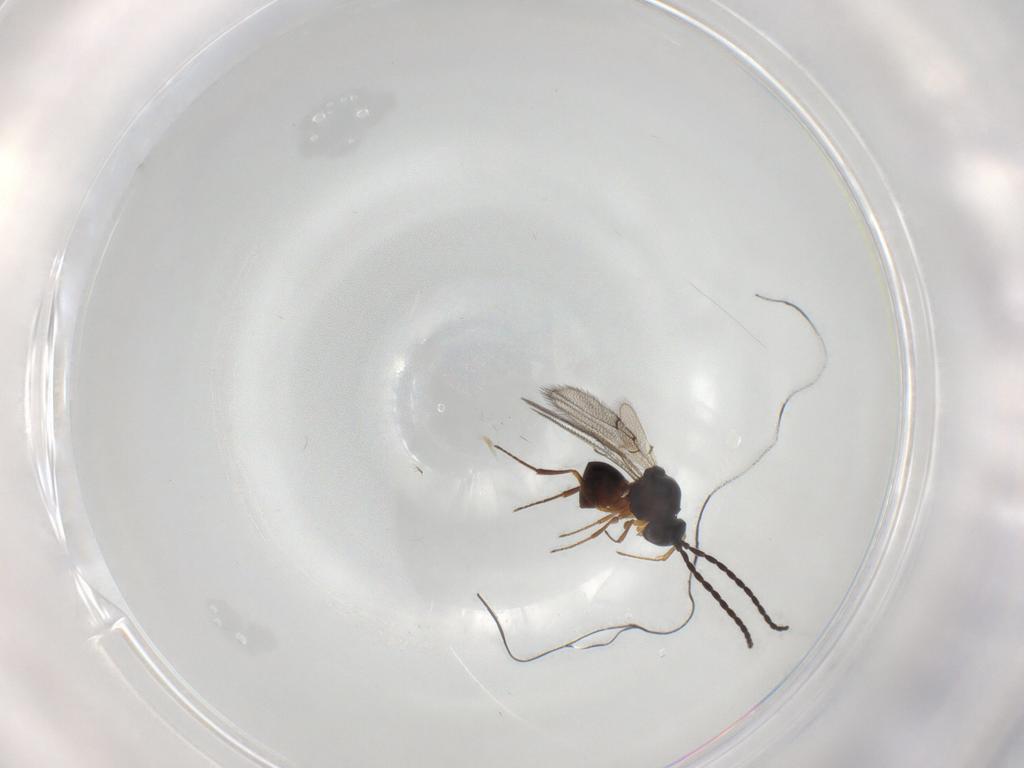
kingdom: Animalia
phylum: Arthropoda
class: Insecta
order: Hymenoptera
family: Figitidae
